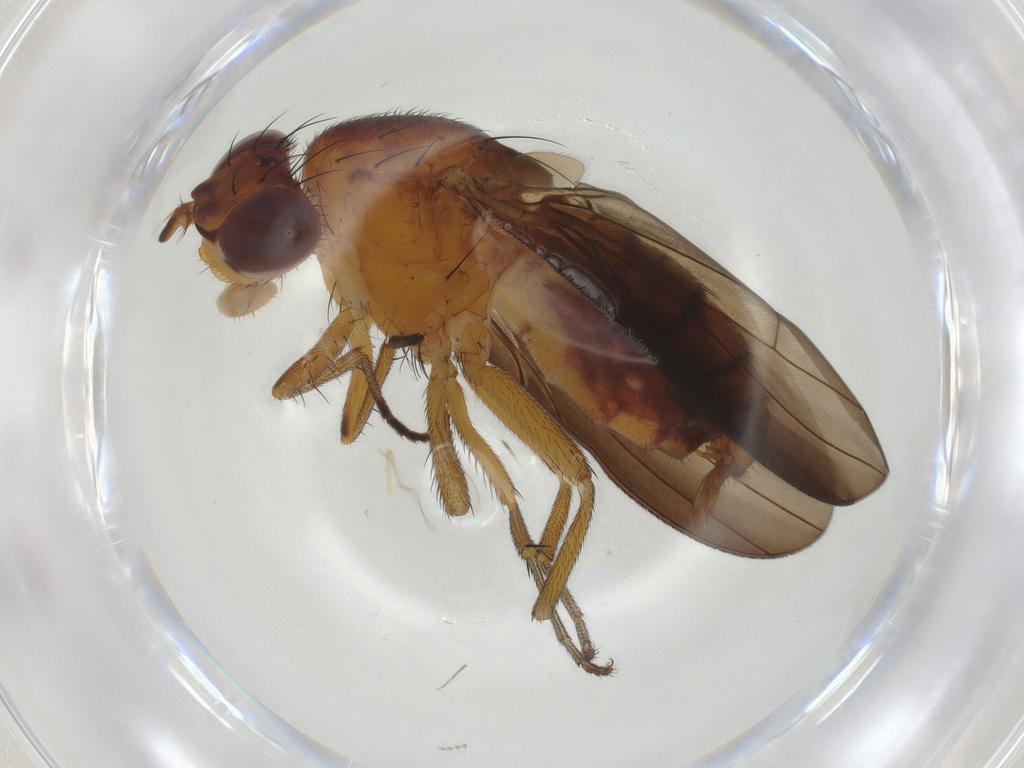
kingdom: Animalia
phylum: Arthropoda
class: Insecta
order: Diptera
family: Lauxaniidae
